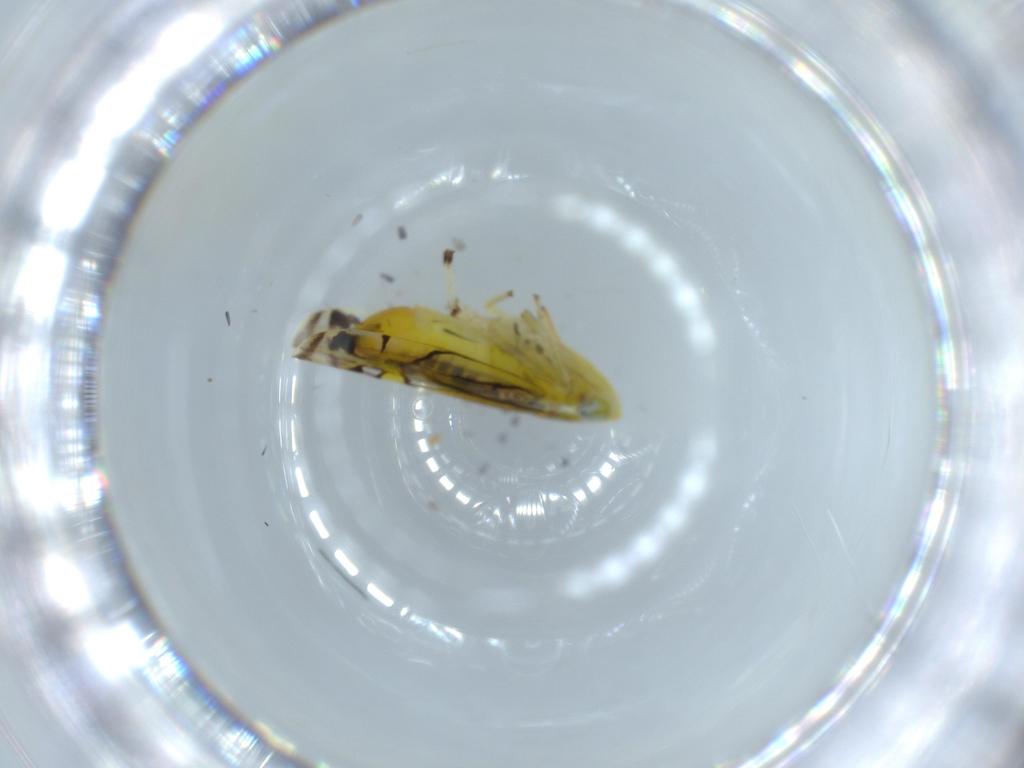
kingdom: Animalia
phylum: Arthropoda
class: Insecta
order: Hemiptera
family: Cicadellidae
